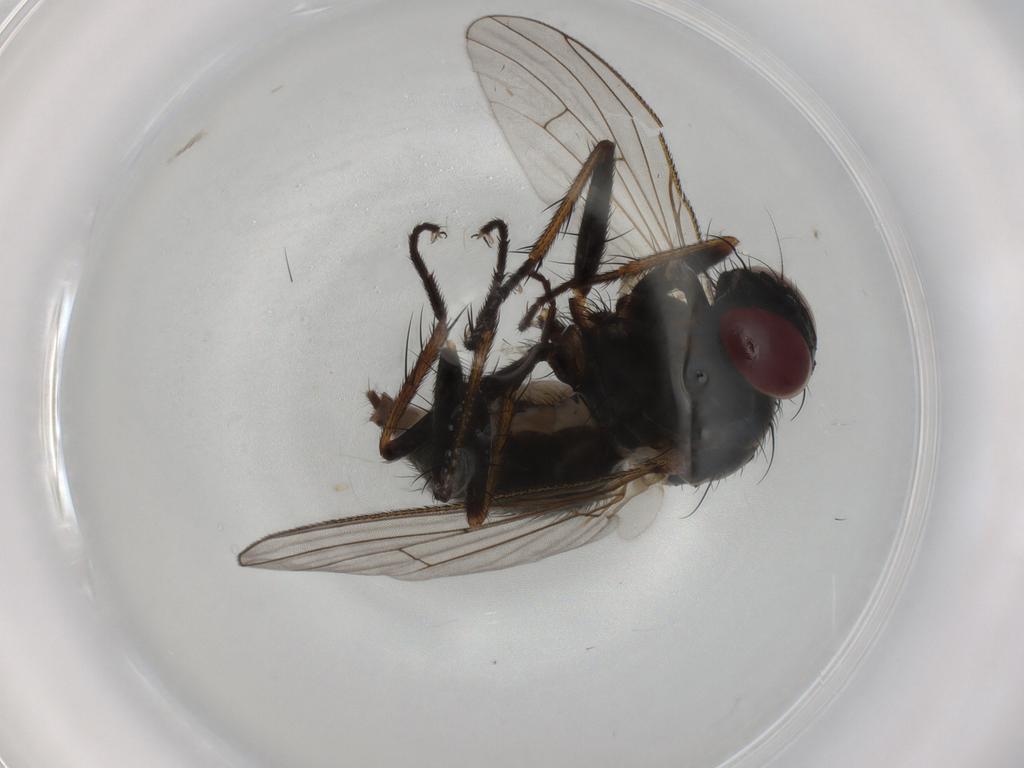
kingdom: Animalia
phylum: Arthropoda
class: Insecta
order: Diptera
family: Muscidae
